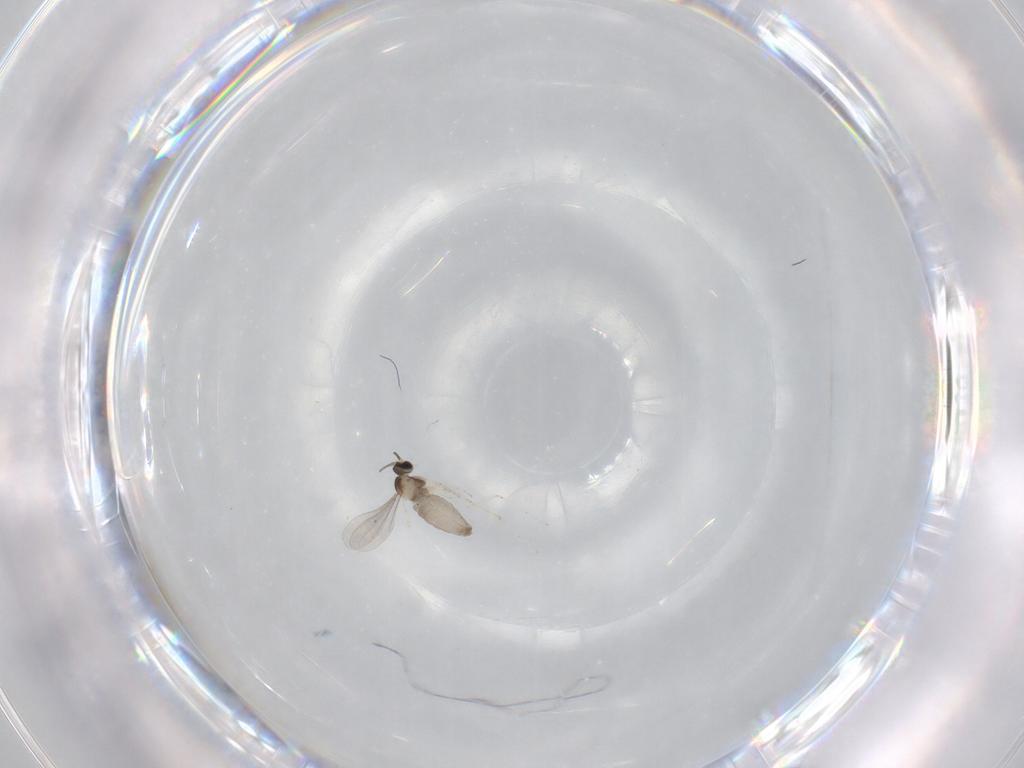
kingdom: Animalia
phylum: Arthropoda
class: Insecta
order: Diptera
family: Cecidomyiidae
